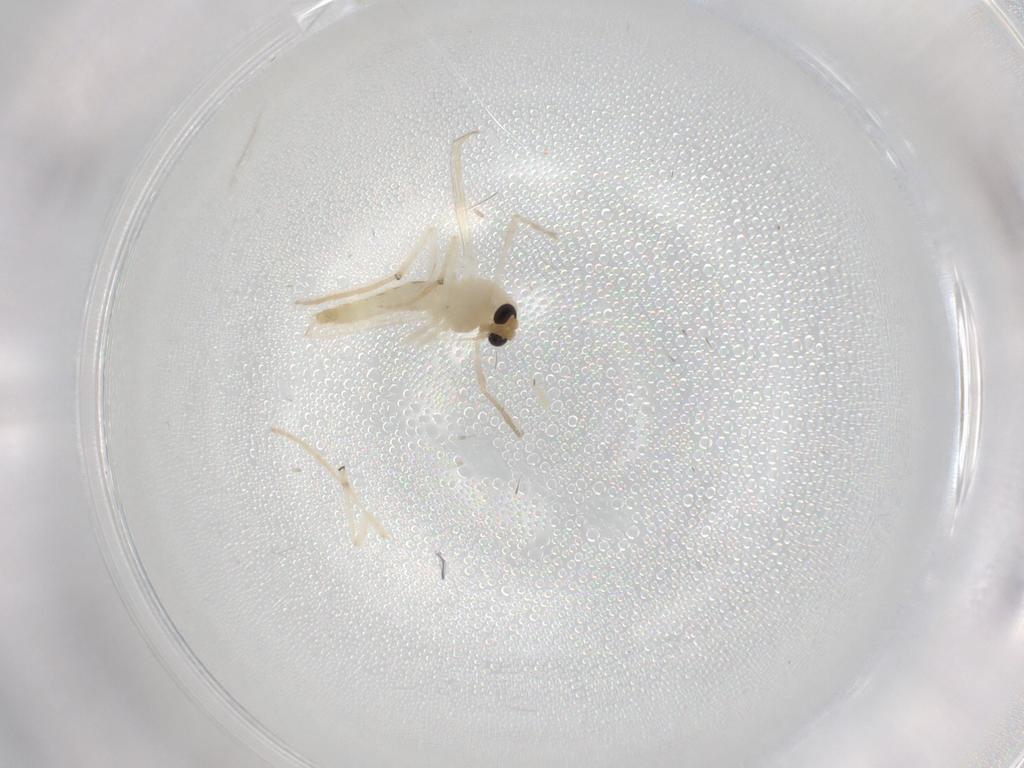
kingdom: Animalia
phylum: Arthropoda
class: Insecta
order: Diptera
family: Chironomidae
